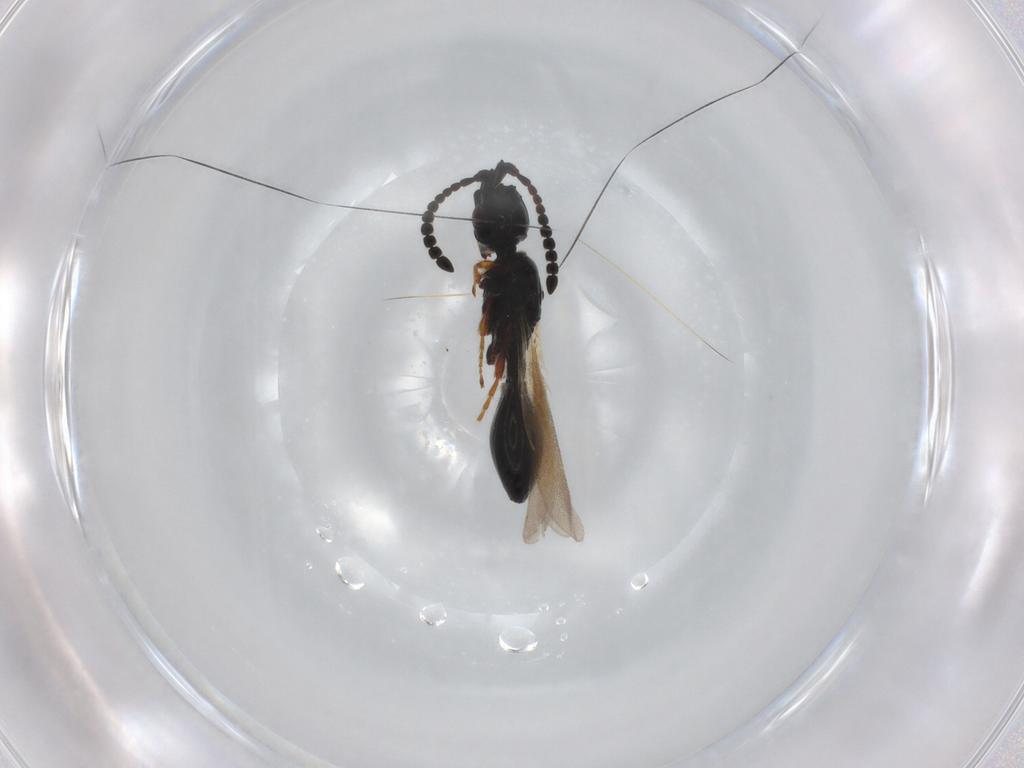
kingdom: Animalia
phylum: Arthropoda
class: Insecta
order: Hymenoptera
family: Diapriidae
